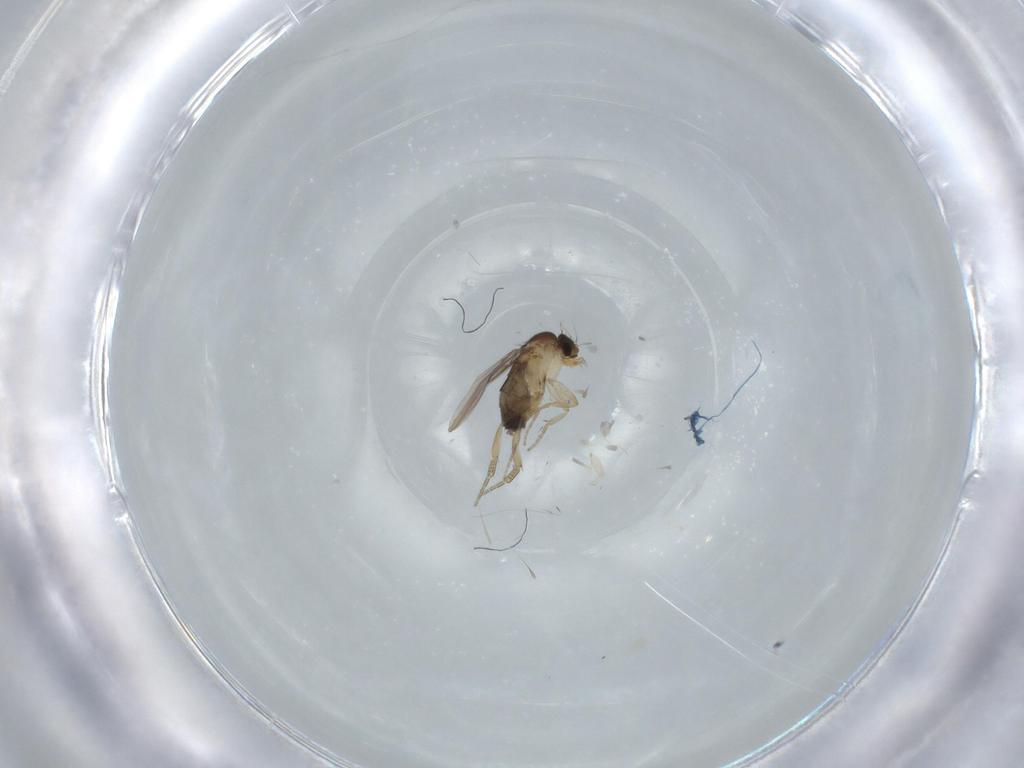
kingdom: Animalia
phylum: Arthropoda
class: Insecta
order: Diptera
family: Phoridae
